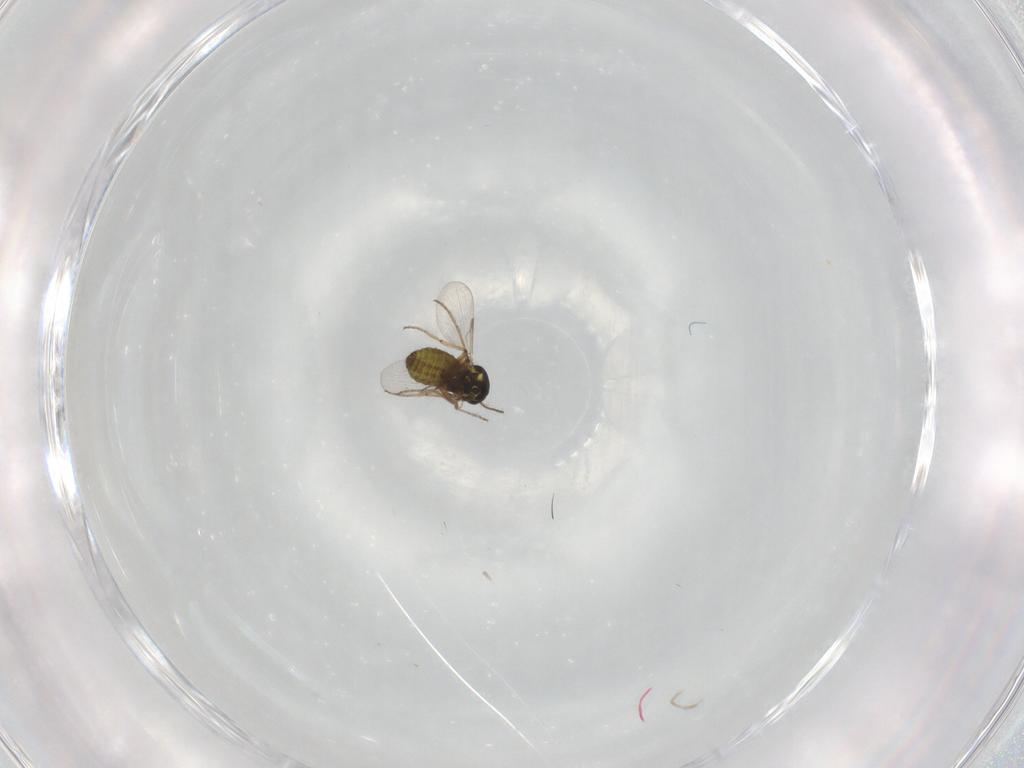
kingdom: Animalia
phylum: Arthropoda
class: Insecta
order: Diptera
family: Ceratopogonidae
